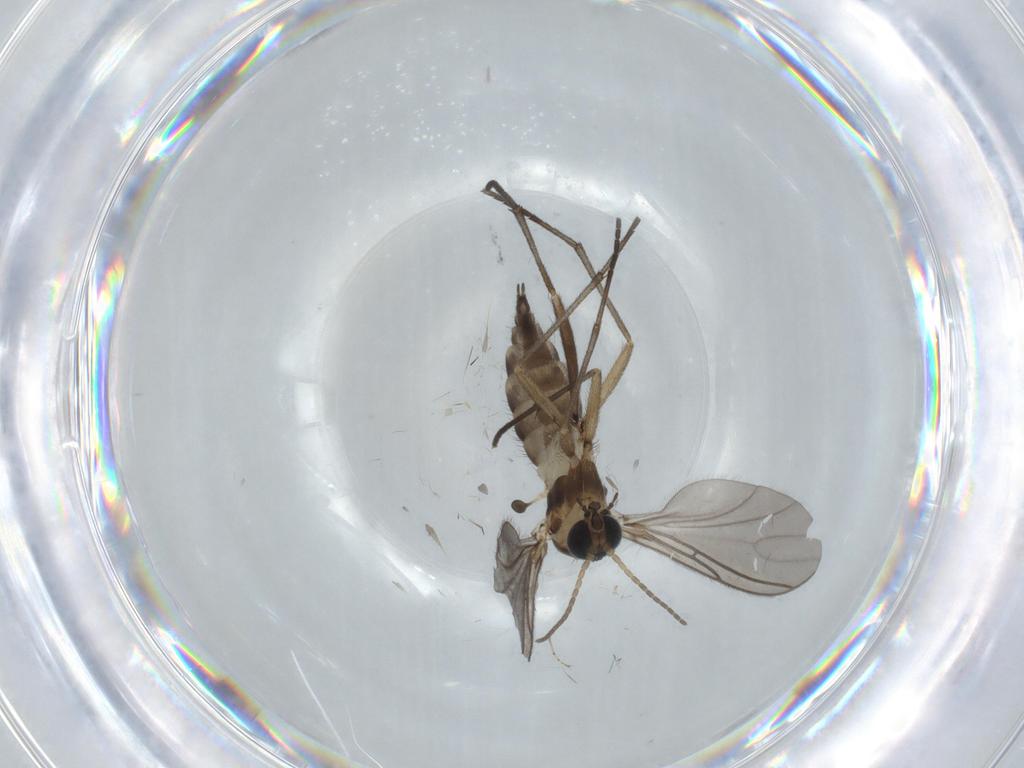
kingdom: Animalia
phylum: Arthropoda
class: Insecta
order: Diptera
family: Sciaridae
